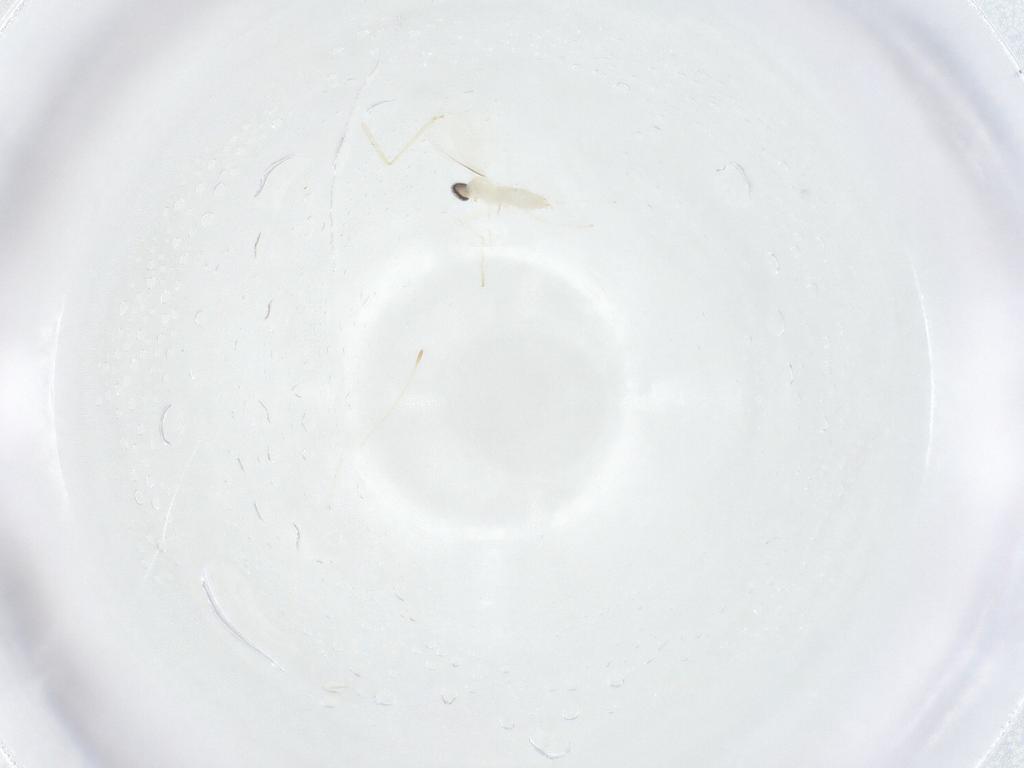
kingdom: Animalia
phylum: Arthropoda
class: Insecta
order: Diptera
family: Cecidomyiidae
